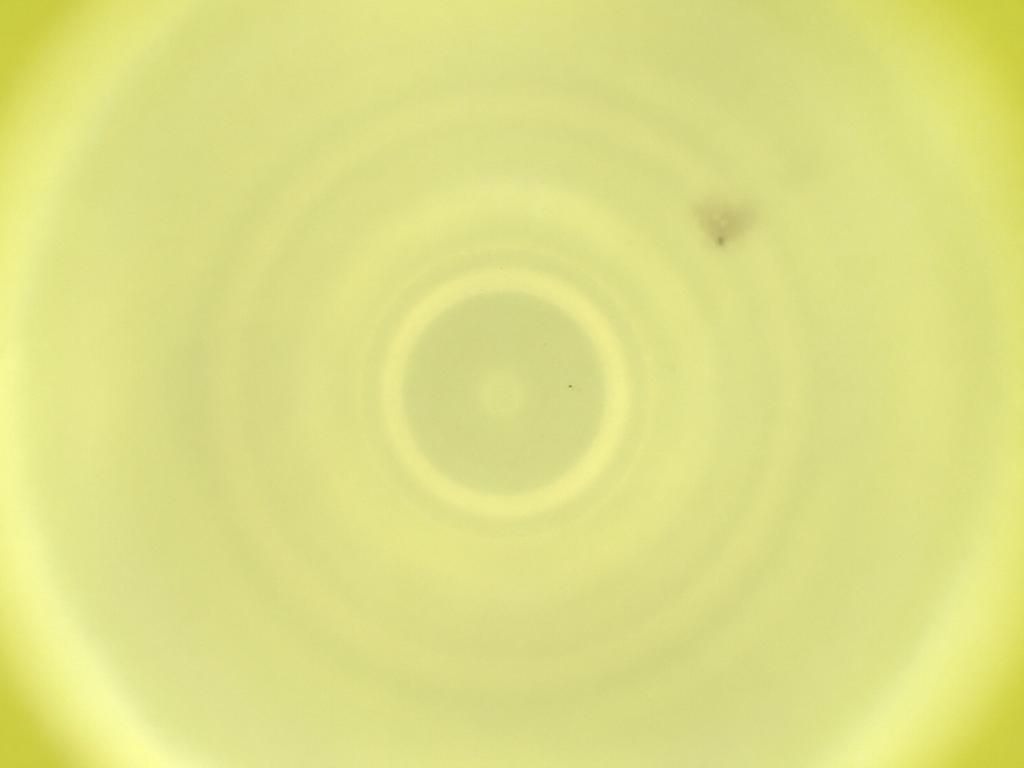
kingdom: Animalia
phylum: Arthropoda
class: Insecta
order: Diptera
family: Cecidomyiidae
